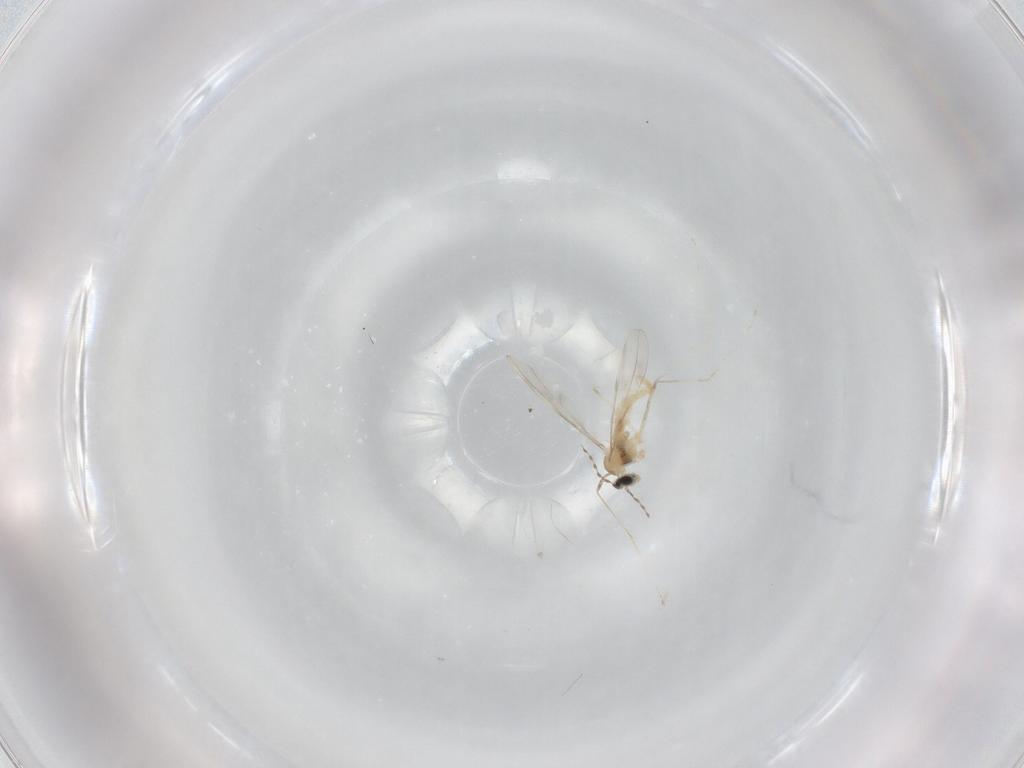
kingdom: Animalia
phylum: Arthropoda
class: Insecta
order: Diptera
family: Cecidomyiidae
